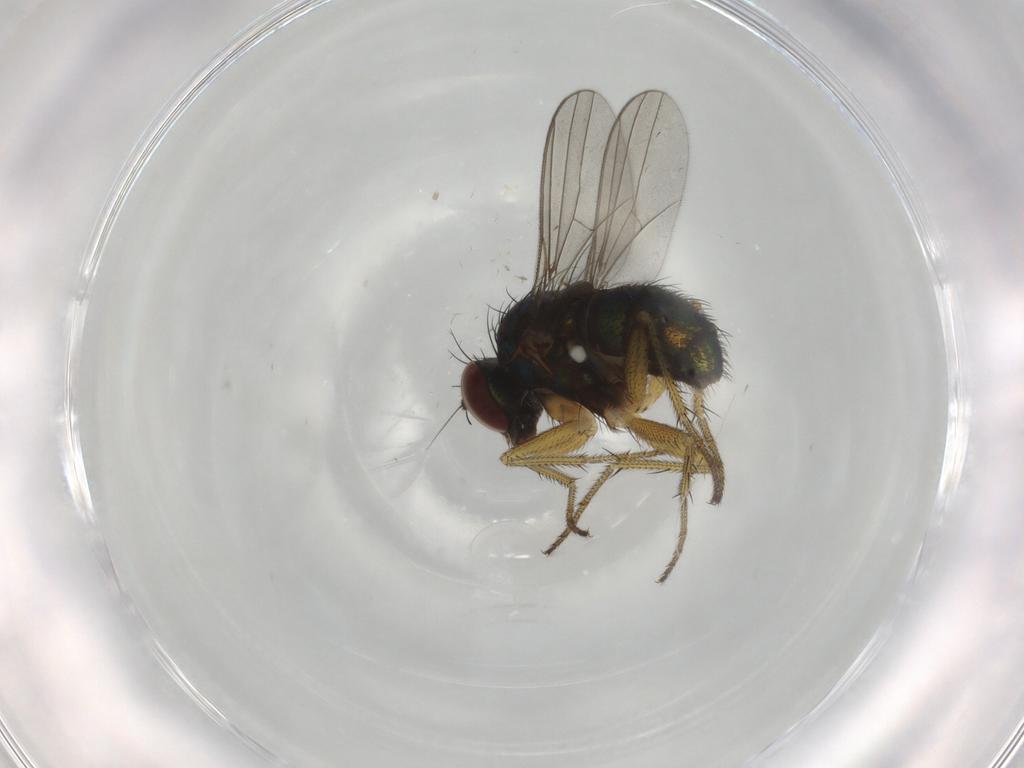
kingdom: Animalia
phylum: Arthropoda
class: Insecta
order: Diptera
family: Dolichopodidae
